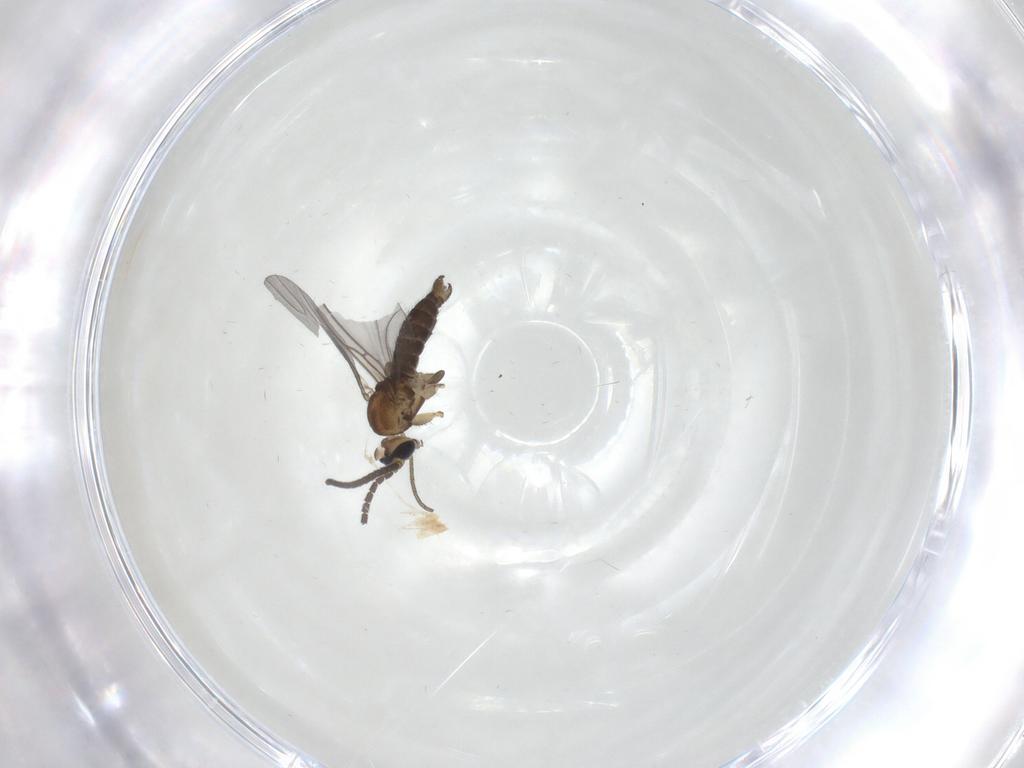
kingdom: Animalia
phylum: Arthropoda
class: Insecta
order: Diptera
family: Sciaridae
